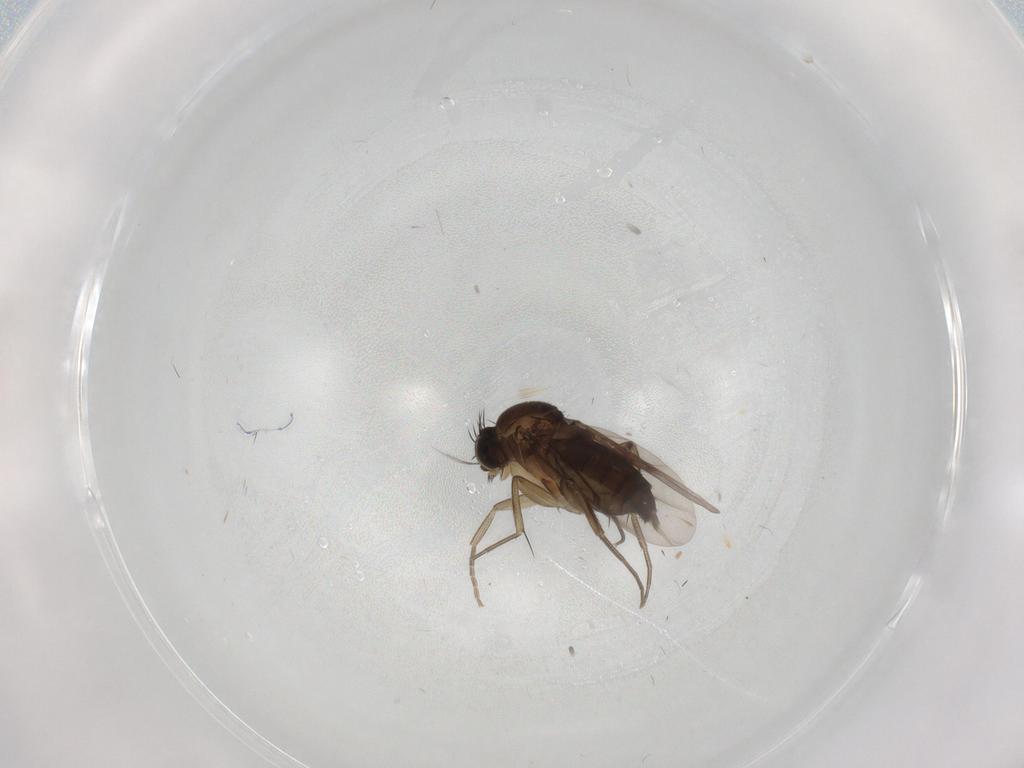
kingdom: Animalia
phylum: Arthropoda
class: Insecta
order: Diptera
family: Limoniidae
